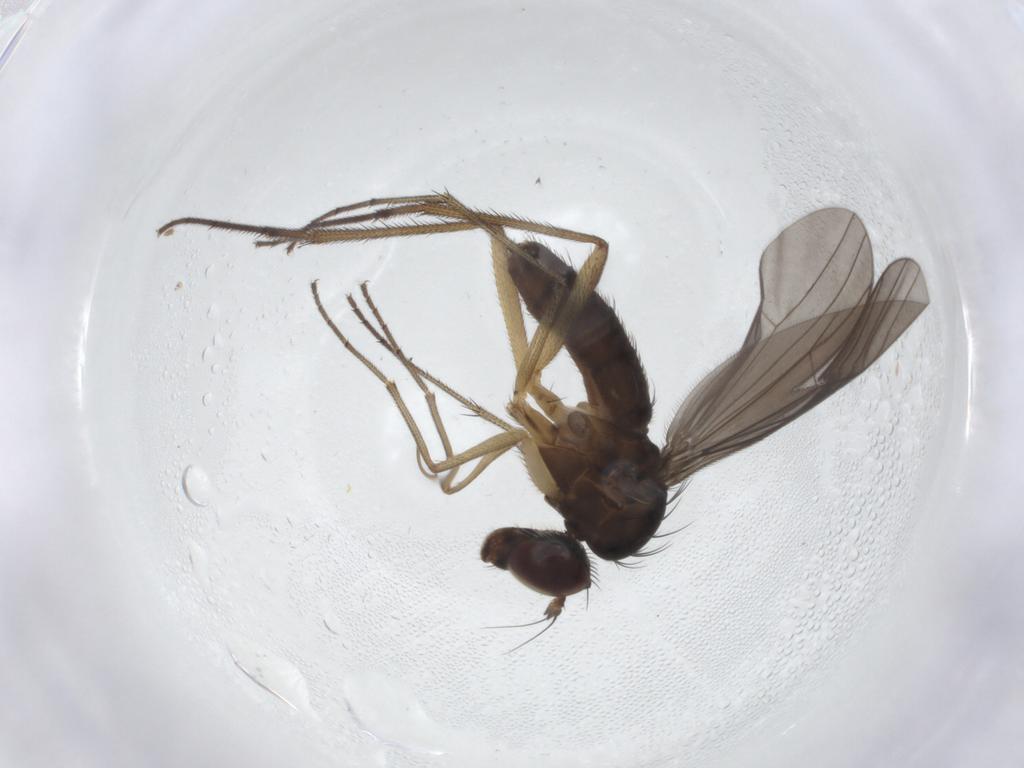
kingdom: Animalia
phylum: Arthropoda
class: Insecta
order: Diptera
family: Dolichopodidae
